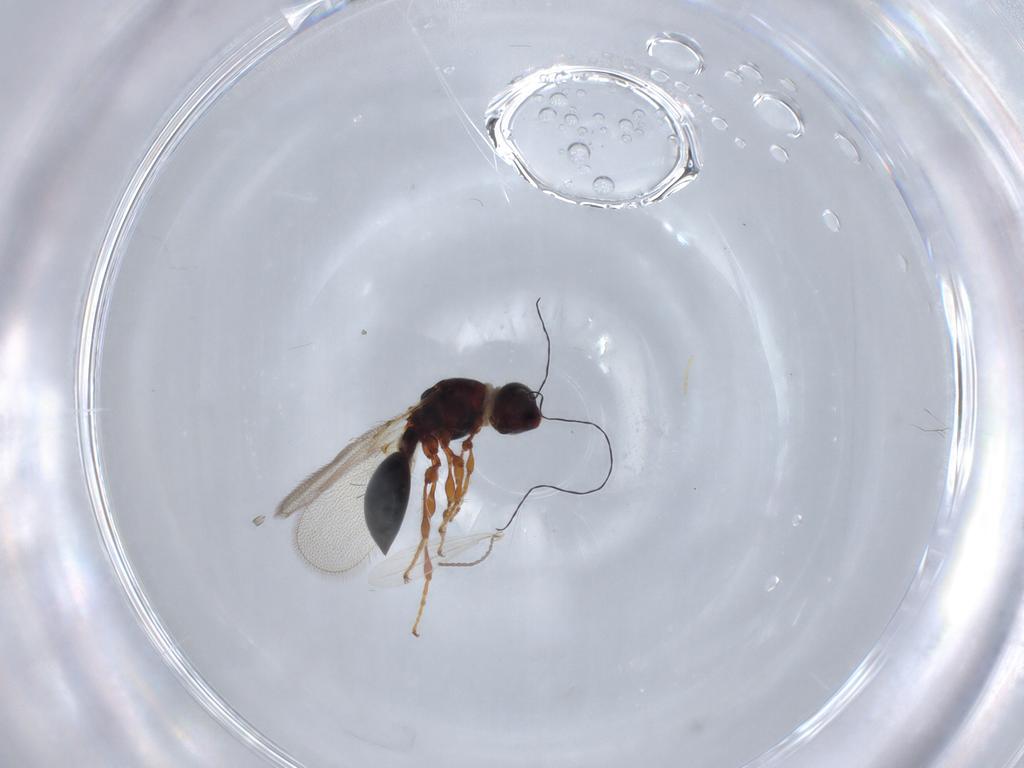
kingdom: Animalia
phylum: Arthropoda
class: Insecta
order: Hymenoptera
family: Diapriidae
